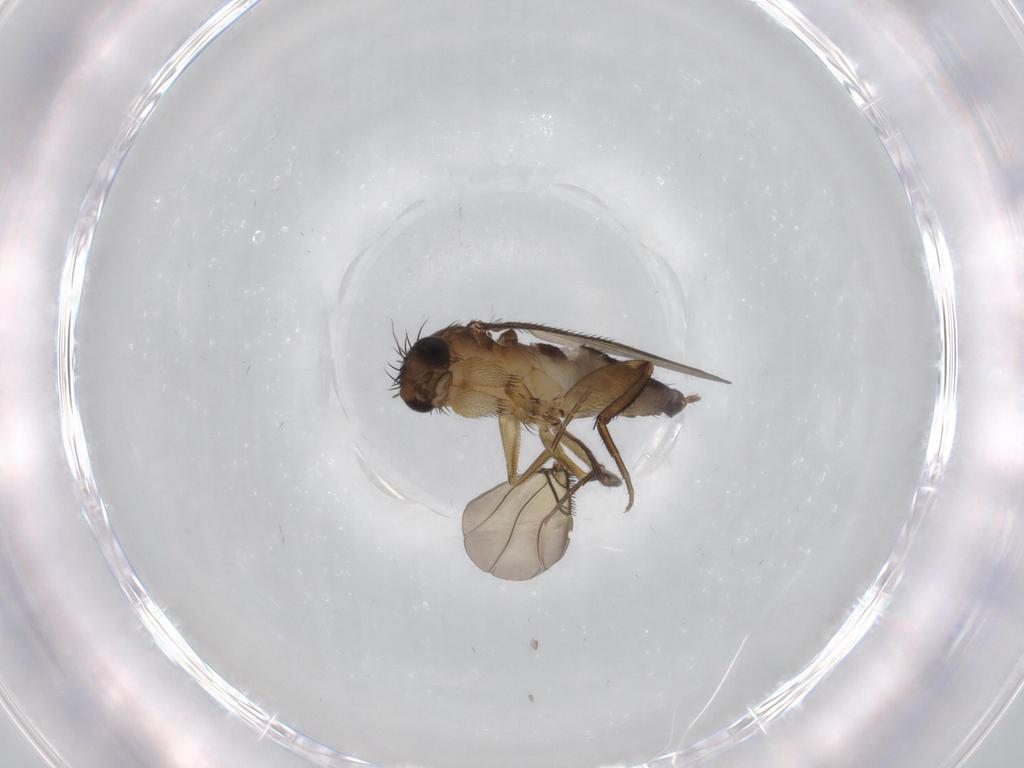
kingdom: Animalia
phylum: Arthropoda
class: Insecta
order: Diptera
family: Phoridae
